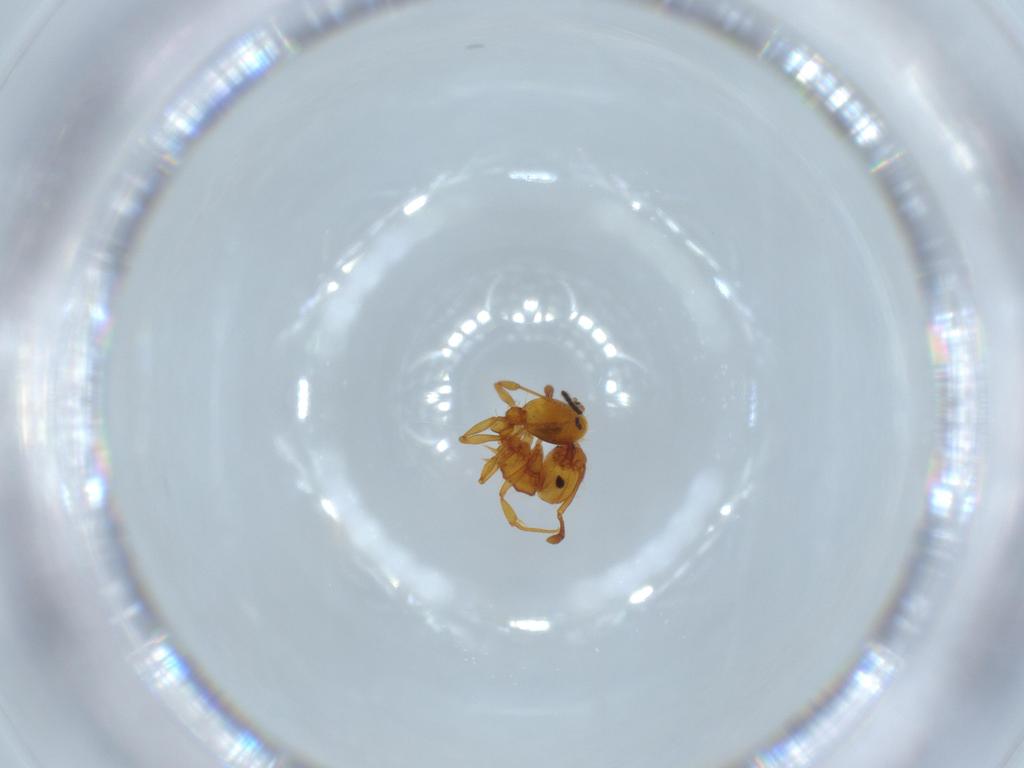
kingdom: Animalia
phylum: Arthropoda
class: Insecta
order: Hymenoptera
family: Formicidae
